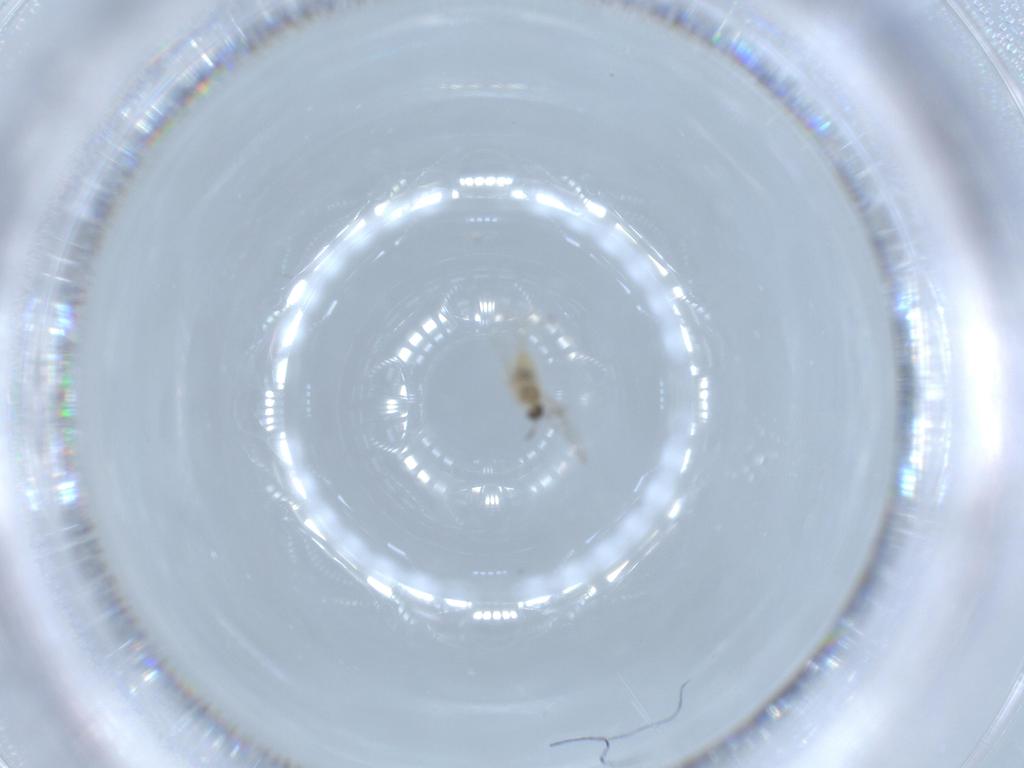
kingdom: Animalia
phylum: Arthropoda
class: Insecta
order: Diptera
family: Cecidomyiidae
